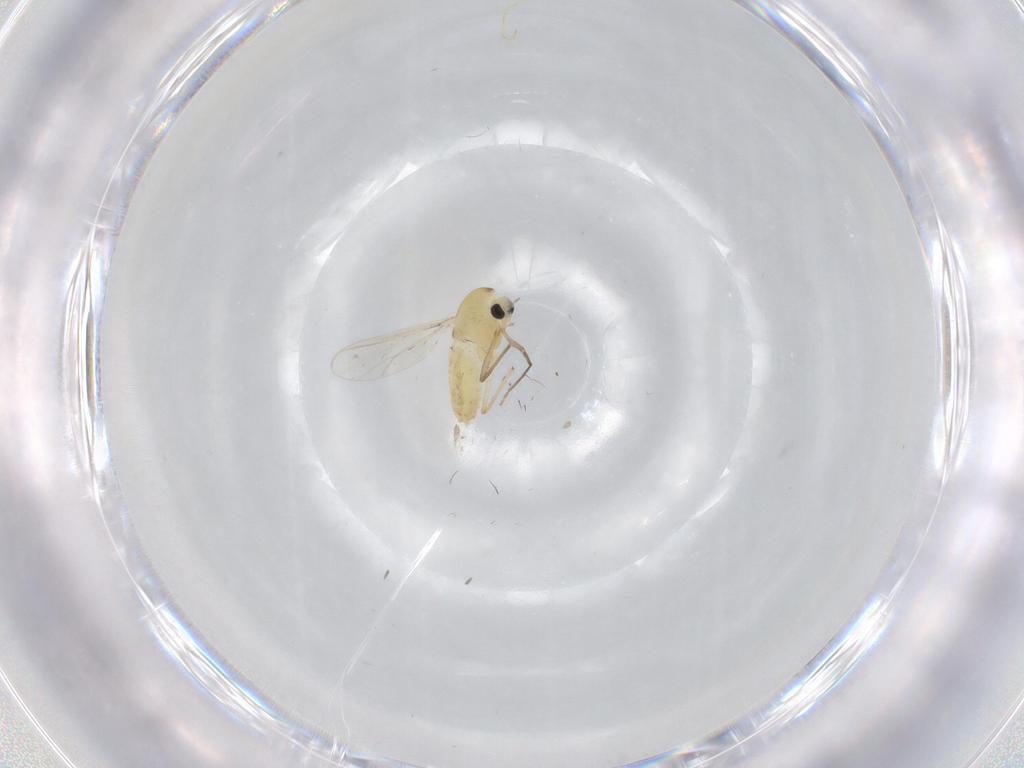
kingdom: Animalia
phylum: Arthropoda
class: Insecta
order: Diptera
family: Chironomidae
